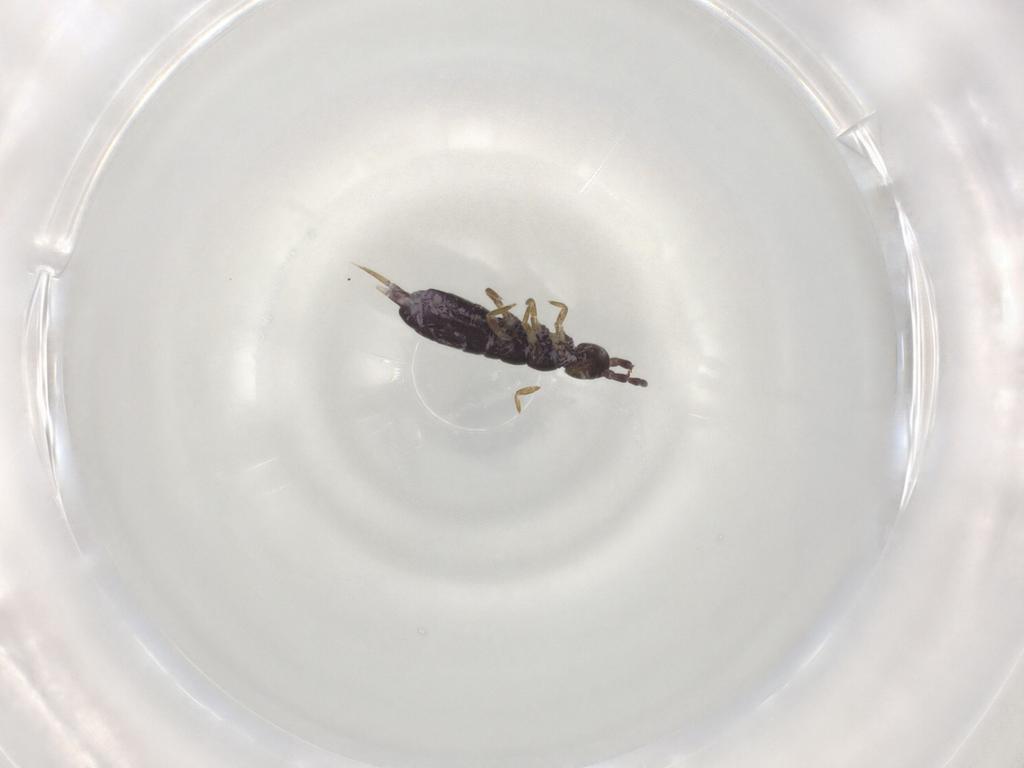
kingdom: Animalia
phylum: Arthropoda
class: Collembola
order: Entomobryomorpha
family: Isotomidae
